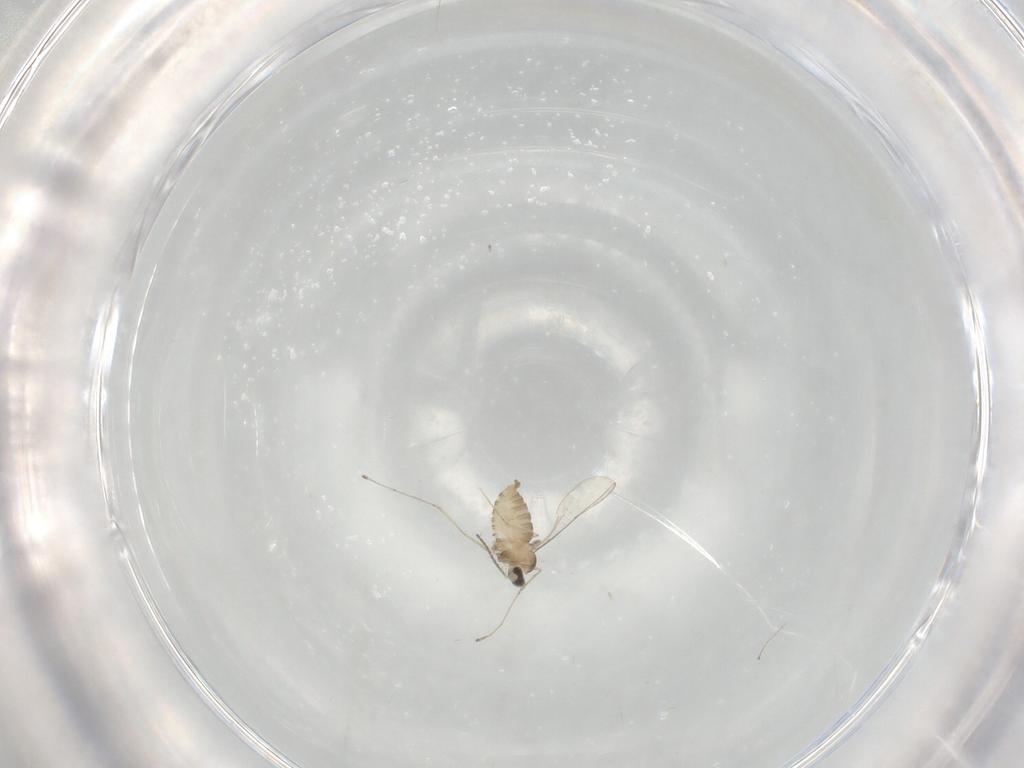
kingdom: Animalia
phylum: Arthropoda
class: Insecta
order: Diptera
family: Cecidomyiidae
